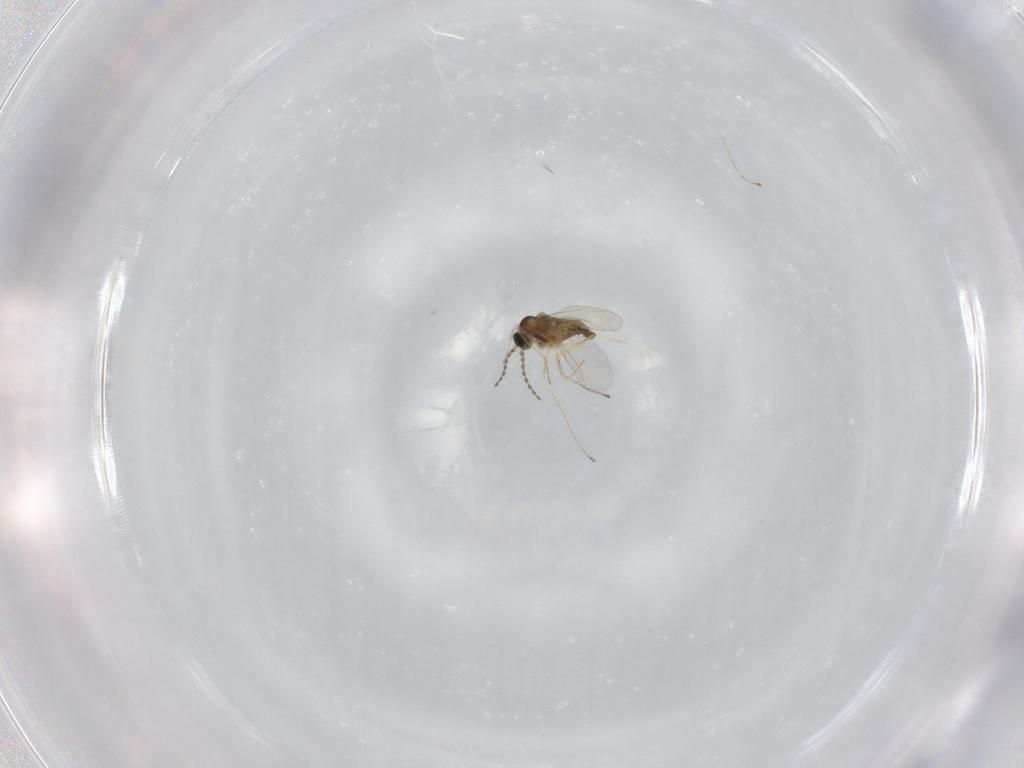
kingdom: Animalia
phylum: Arthropoda
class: Insecta
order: Diptera
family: Cecidomyiidae
